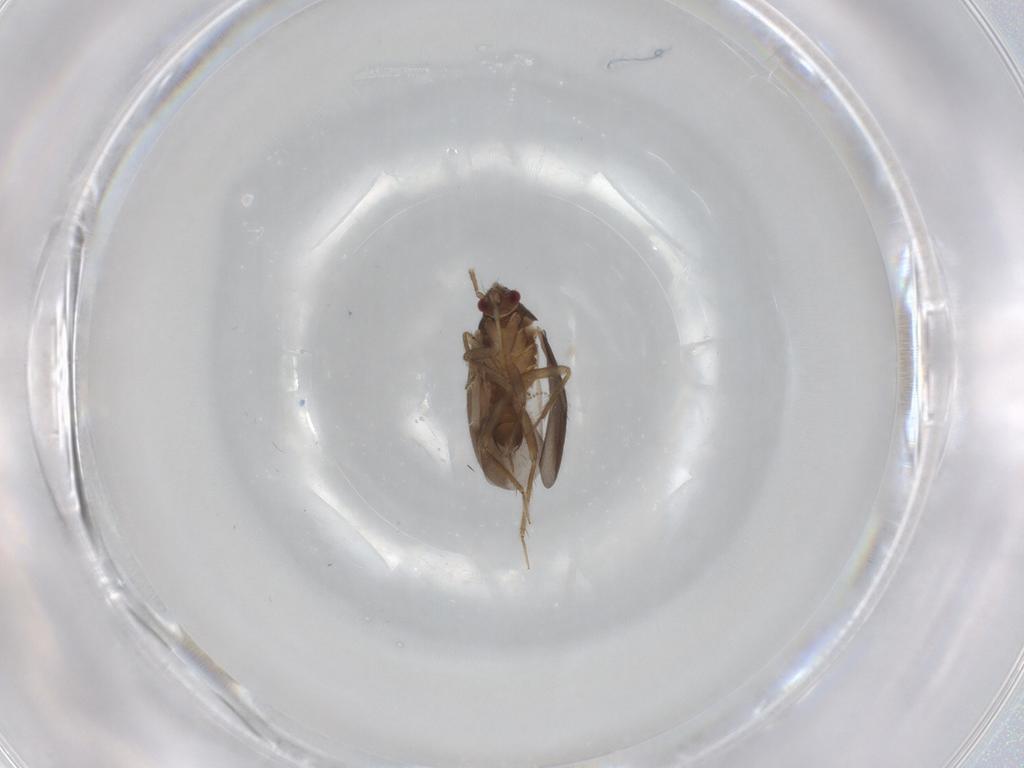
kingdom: Animalia
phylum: Arthropoda
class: Insecta
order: Hemiptera
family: Ceratocombidae
